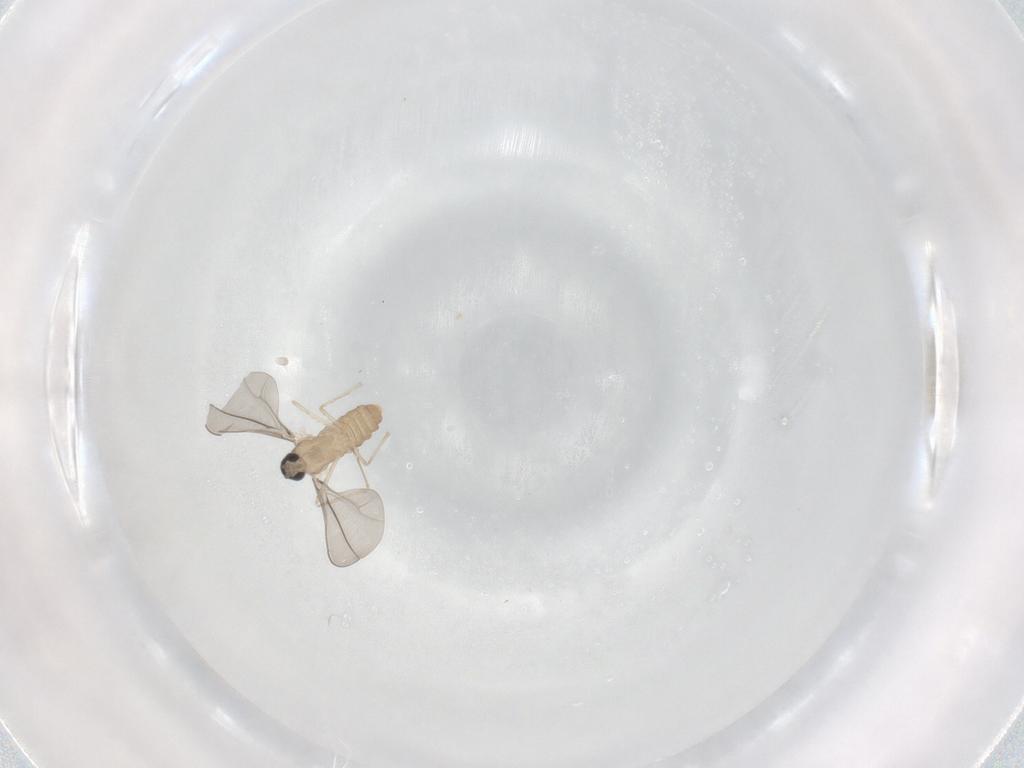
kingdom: Animalia
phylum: Arthropoda
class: Insecta
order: Diptera
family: Cecidomyiidae
